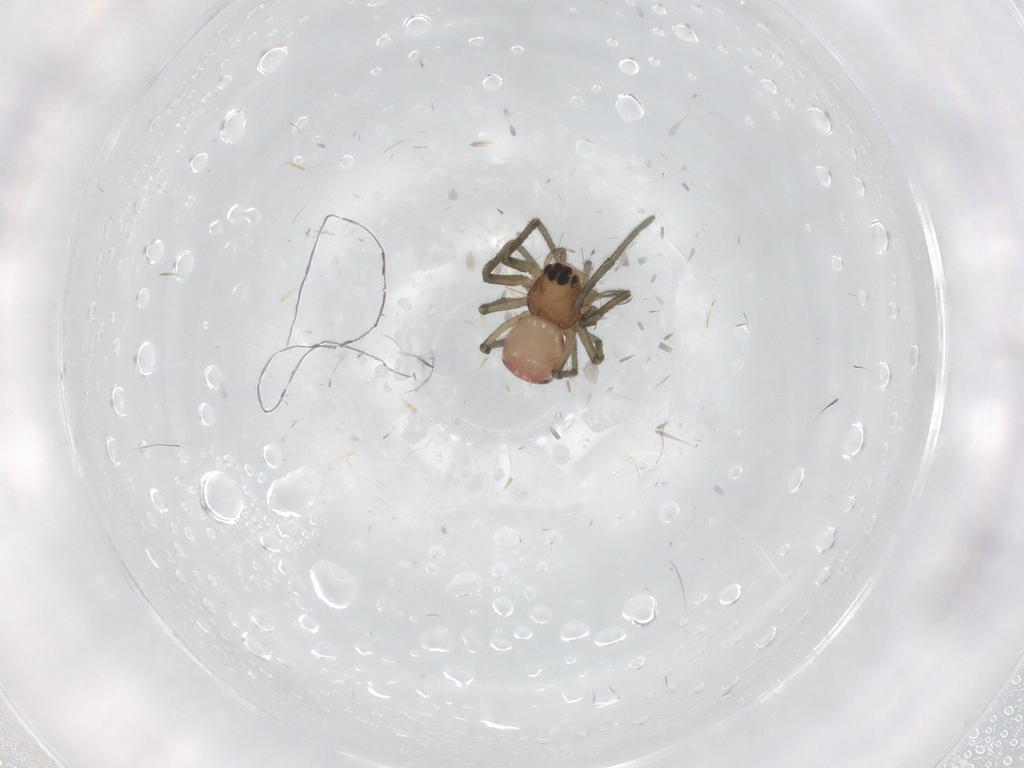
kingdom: Animalia
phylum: Arthropoda
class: Arachnida
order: Araneae
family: Tetragnathidae
